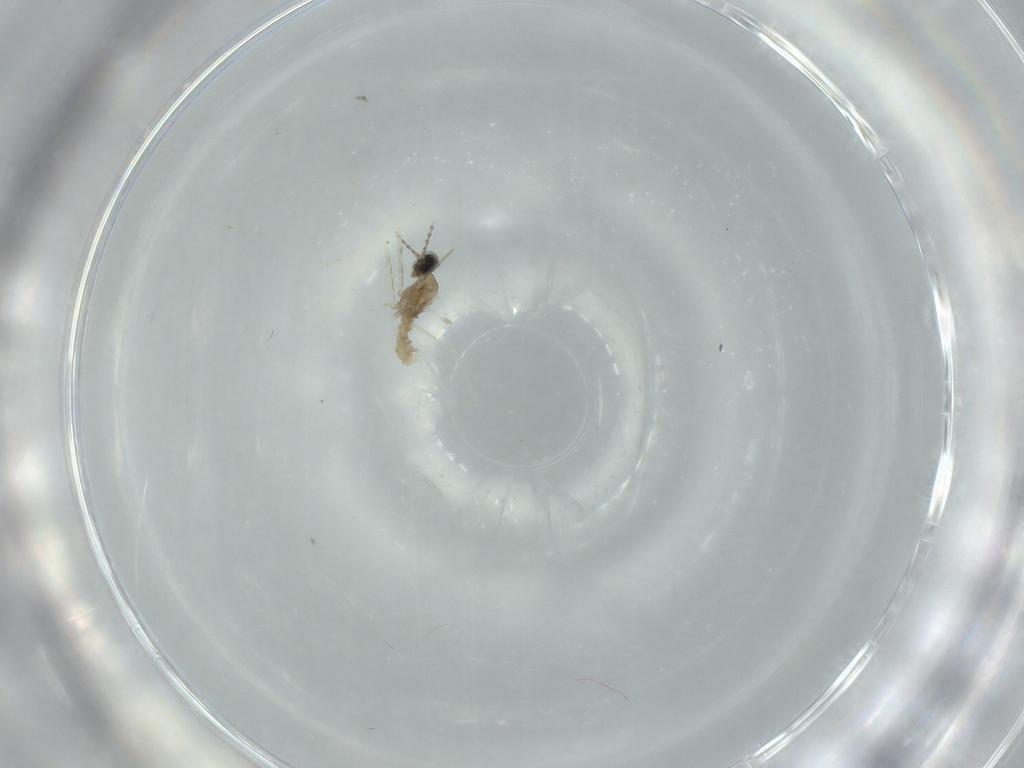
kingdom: Animalia
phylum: Arthropoda
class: Insecta
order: Diptera
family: Cecidomyiidae
